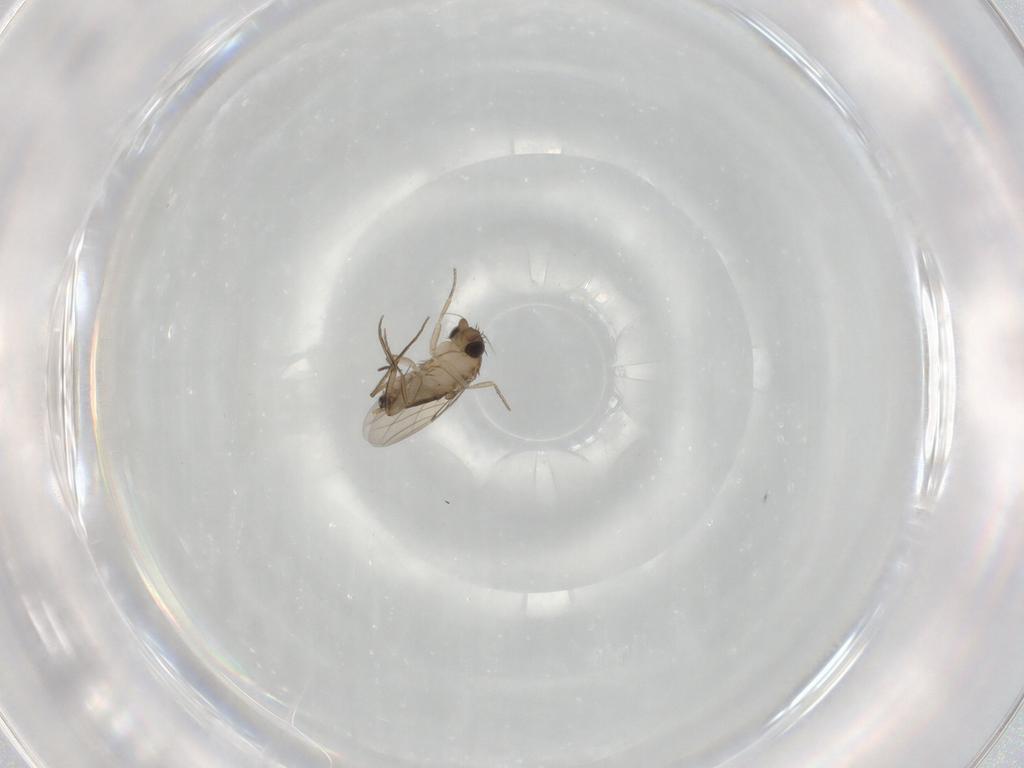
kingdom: Animalia
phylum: Arthropoda
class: Insecta
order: Diptera
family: Phoridae
